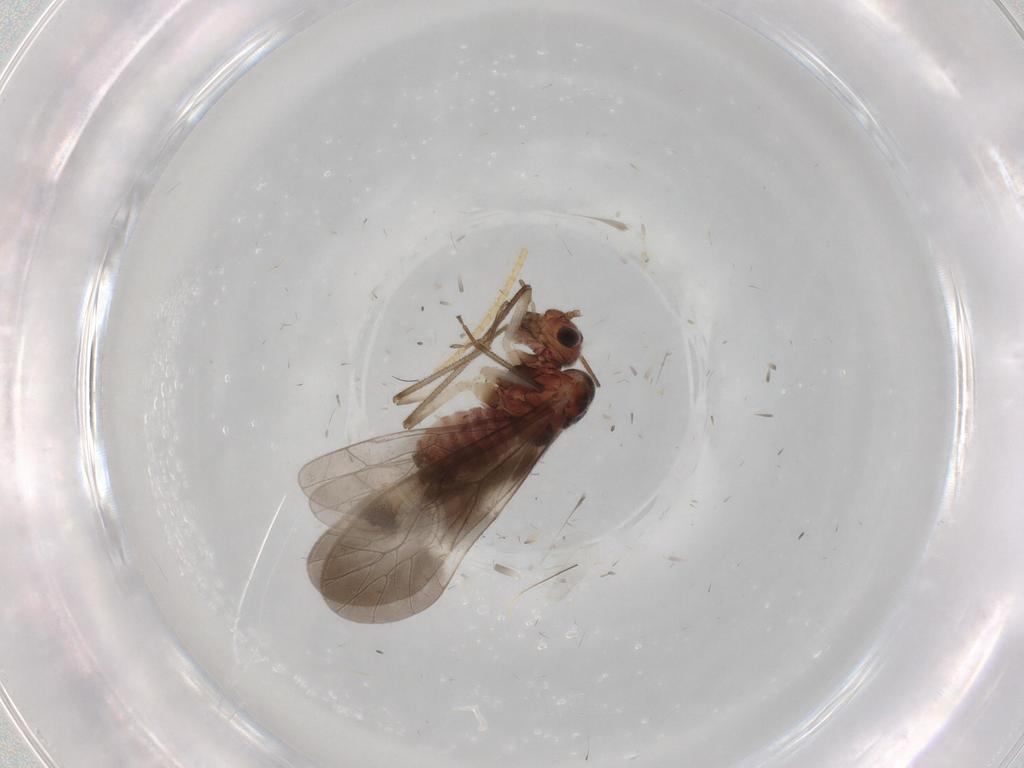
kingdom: Animalia
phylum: Arthropoda
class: Insecta
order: Psocodea
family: Caeciliusidae
